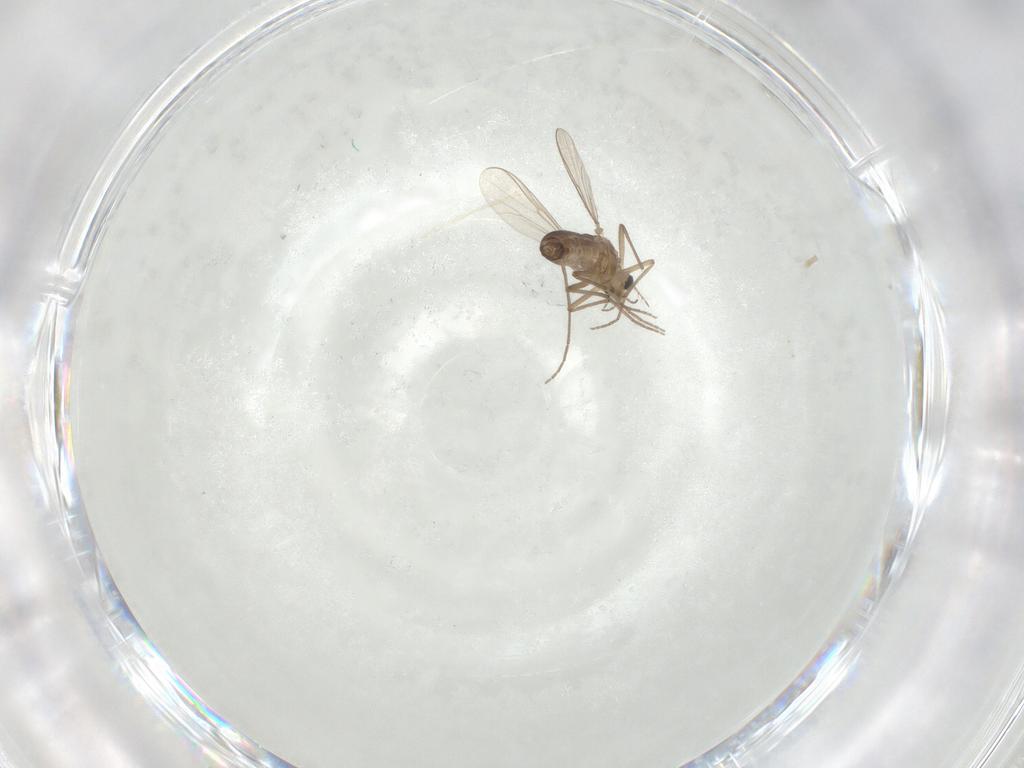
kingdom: Animalia
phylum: Arthropoda
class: Insecta
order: Diptera
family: Chironomidae
